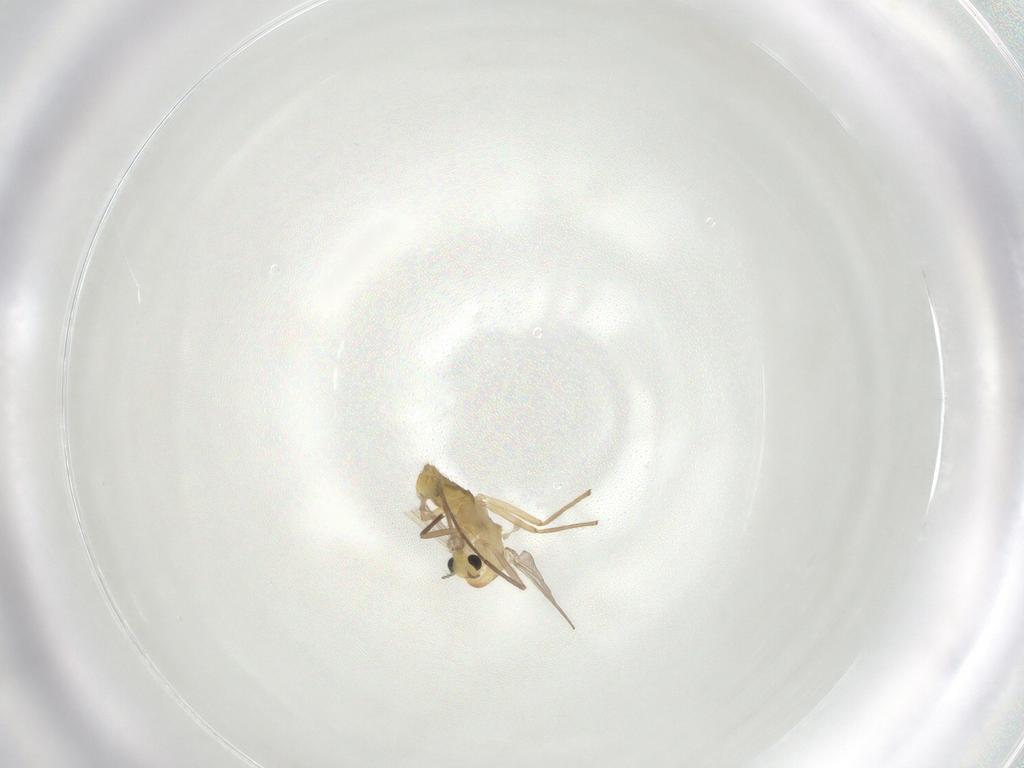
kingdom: Animalia
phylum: Arthropoda
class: Insecta
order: Diptera
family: Chironomidae
